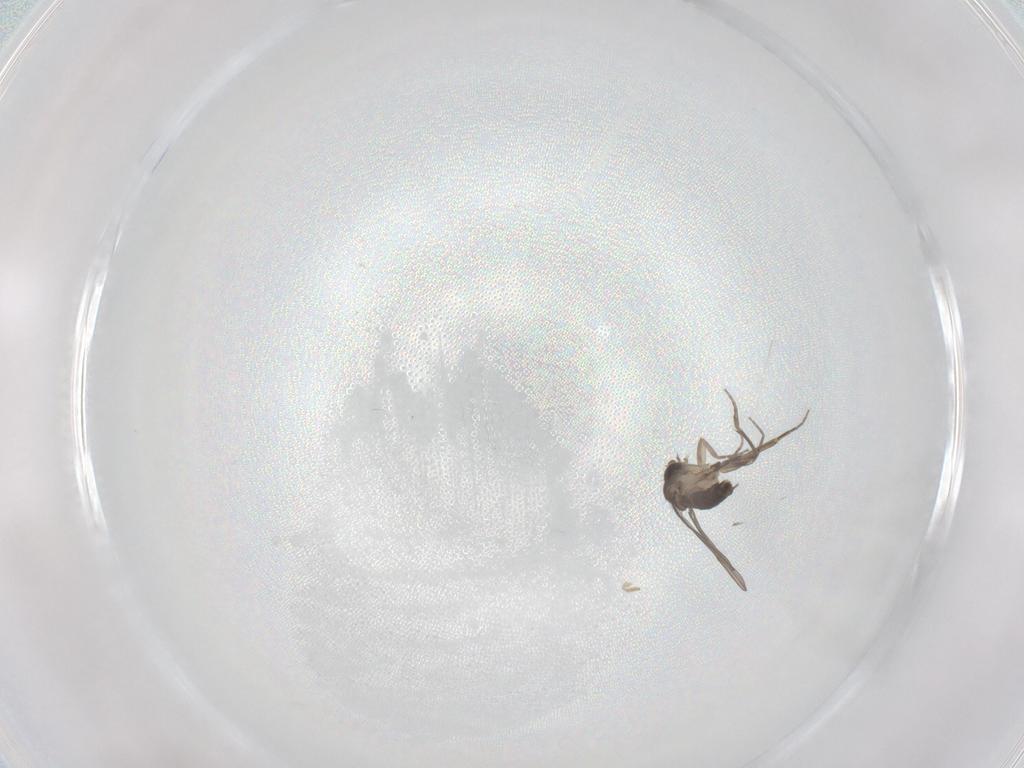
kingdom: Animalia
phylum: Arthropoda
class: Insecta
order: Diptera
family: Phoridae
